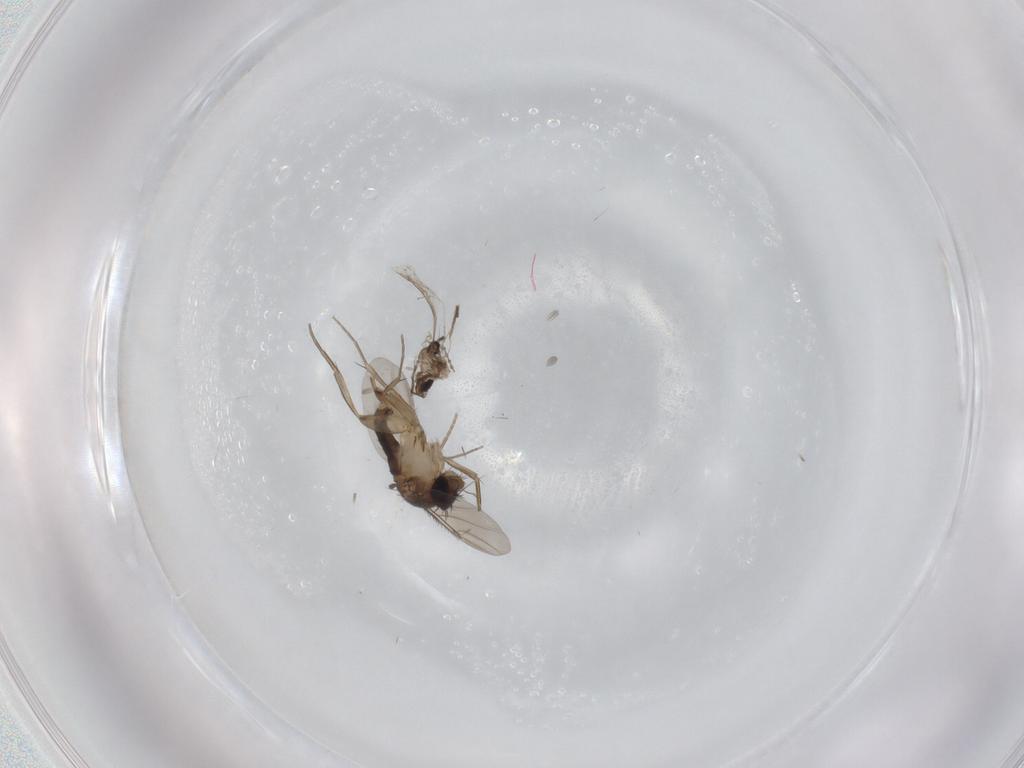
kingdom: Animalia
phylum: Arthropoda
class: Insecta
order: Diptera
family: Phoridae
